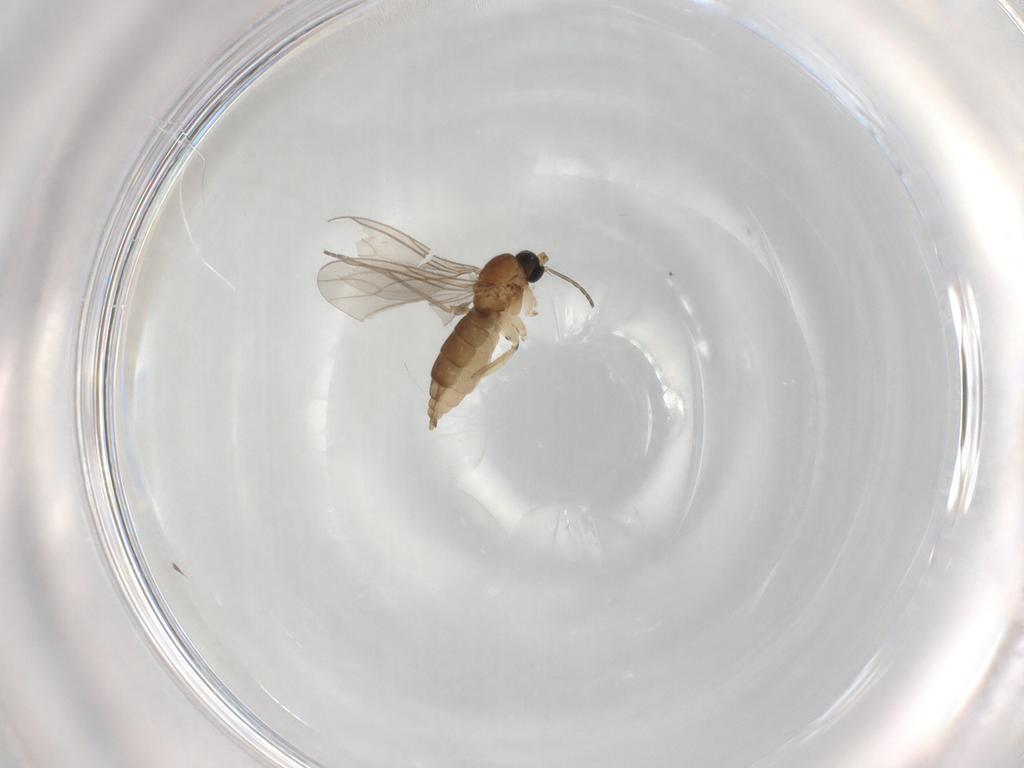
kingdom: Animalia
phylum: Arthropoda
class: Insecta
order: Diptera
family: Sciaridae
